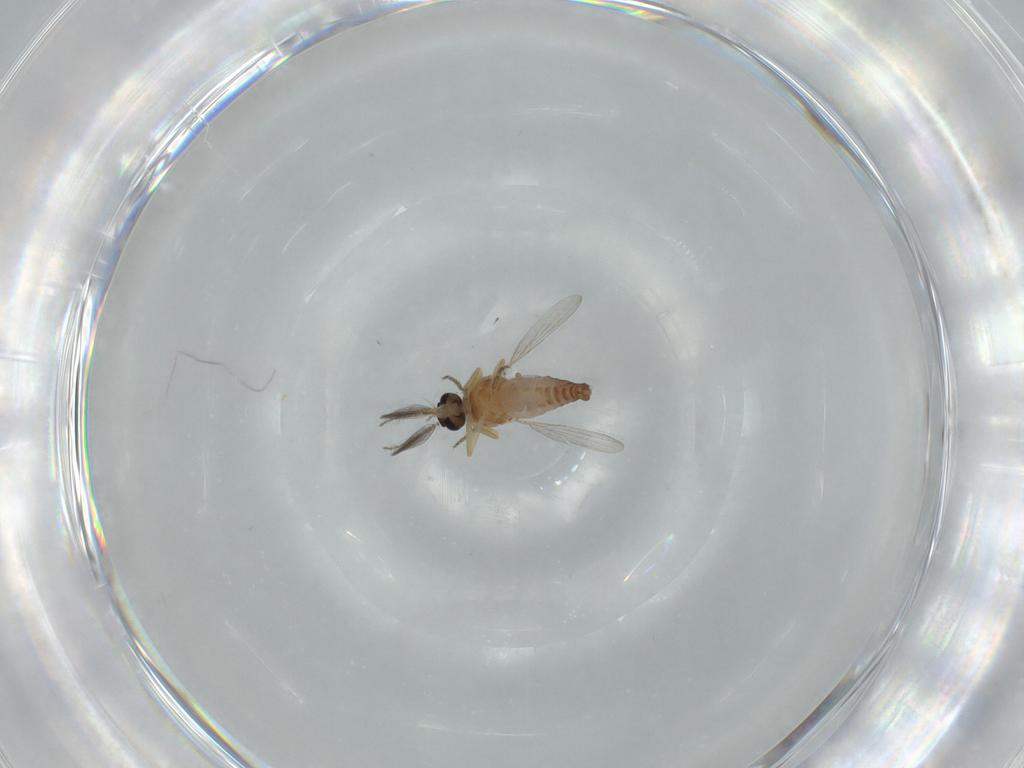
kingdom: Animalia
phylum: Arthropoda
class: Insecta
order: Diptera
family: Ceratopogonidae
